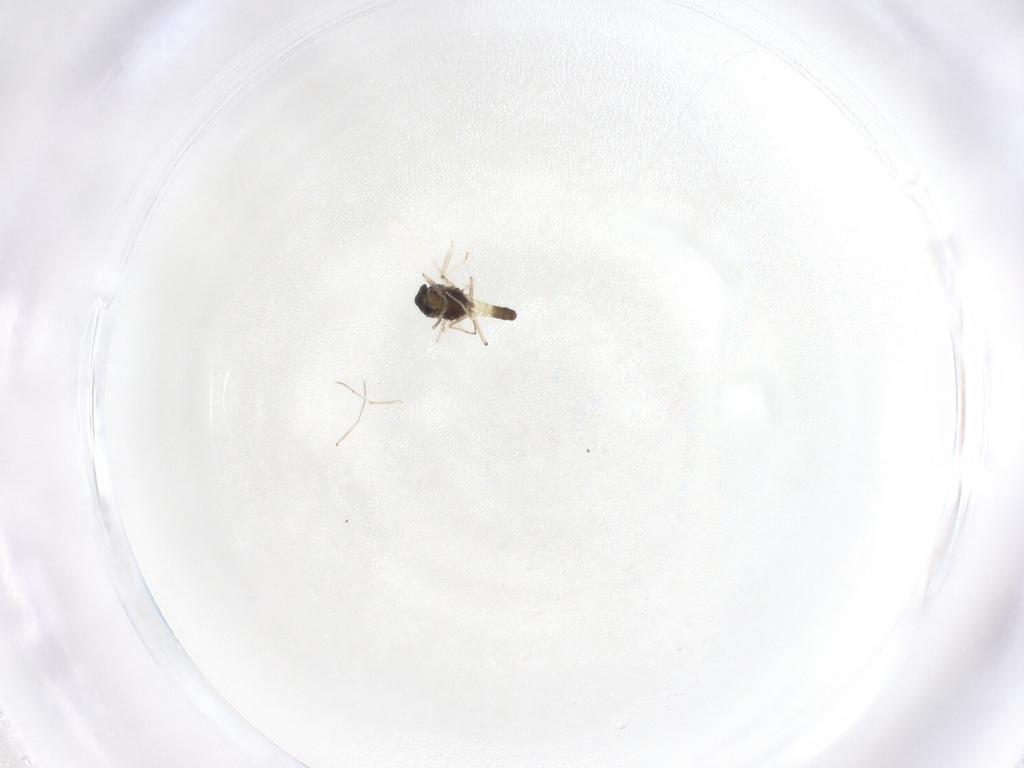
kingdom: Animalia
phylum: Arthropoda
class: Insecta
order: Diptera
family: Chironomidae
